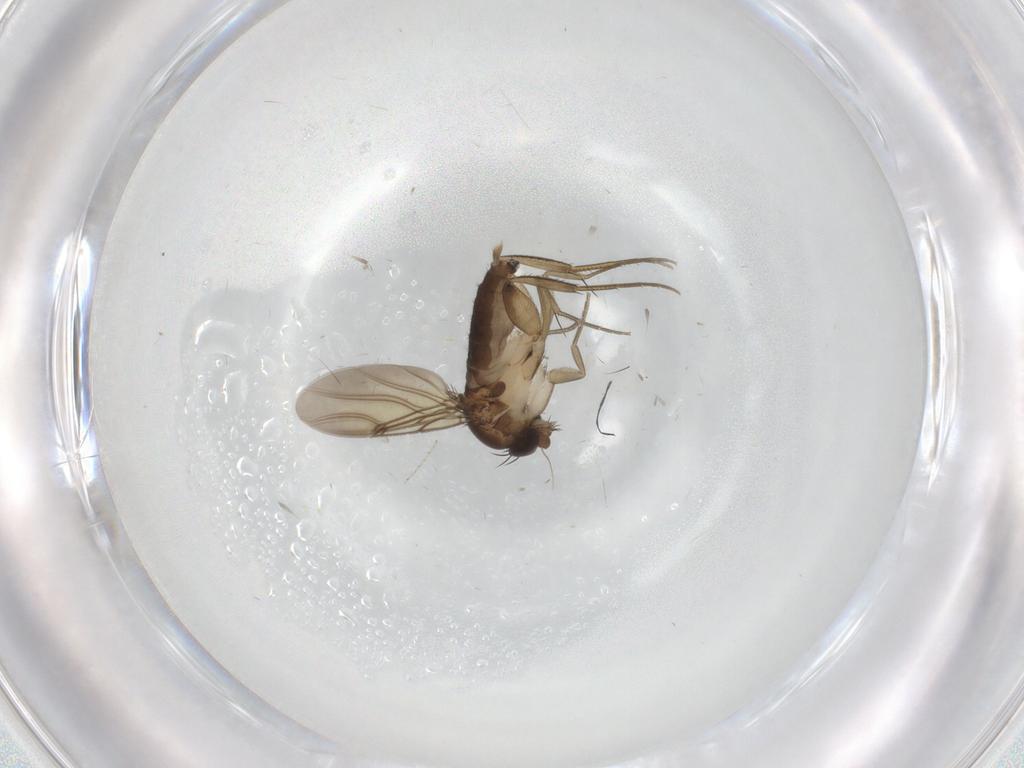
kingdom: Animalia
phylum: Arthropoda
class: Insecta
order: Diptera
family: Phoridae
